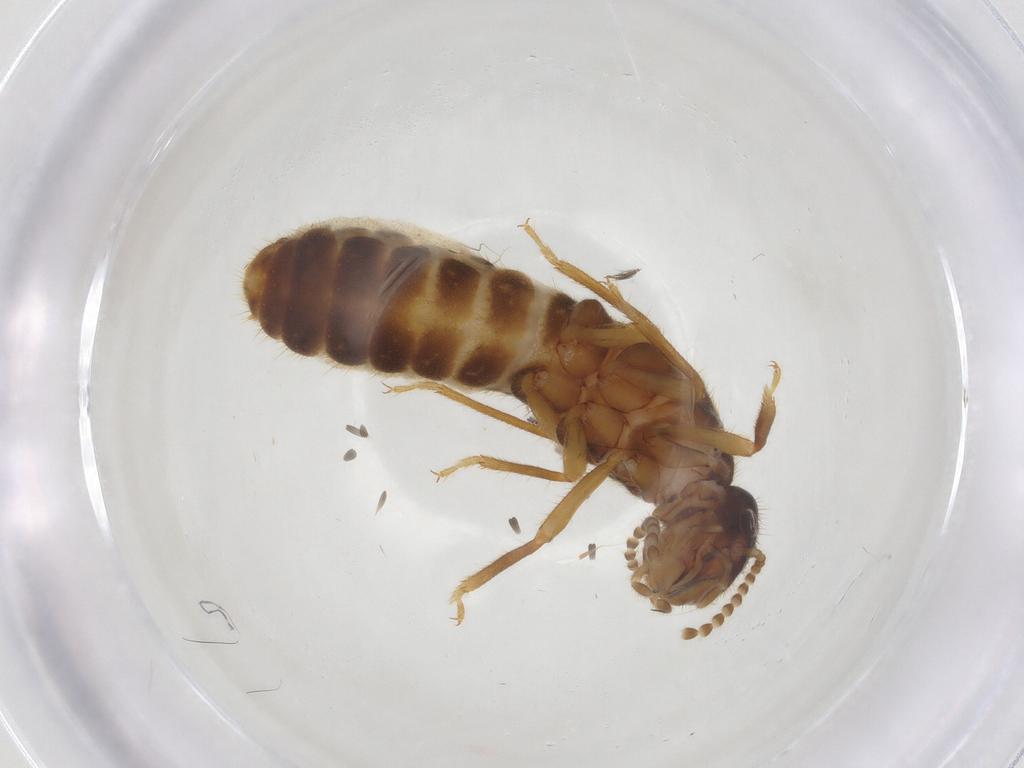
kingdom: Animalia
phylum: Arthropoda
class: Insecta
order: Blattodea
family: Termitidae
